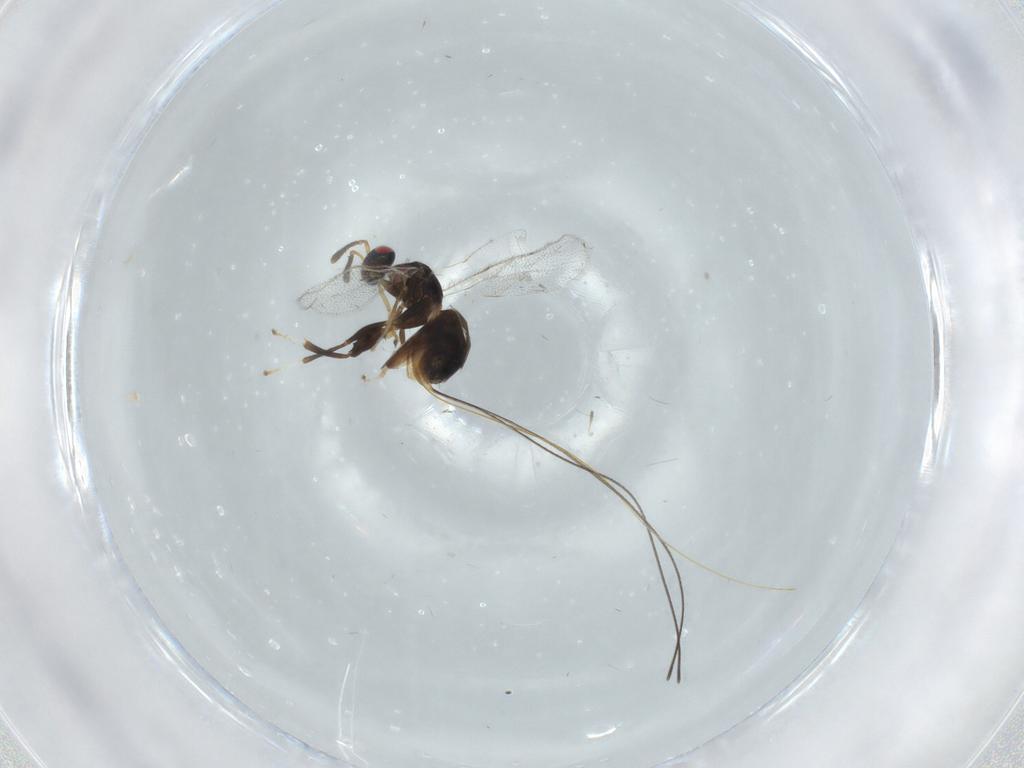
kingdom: Animalia
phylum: Arthropoda
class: Insecta
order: Hymenoptera
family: Torymidae
